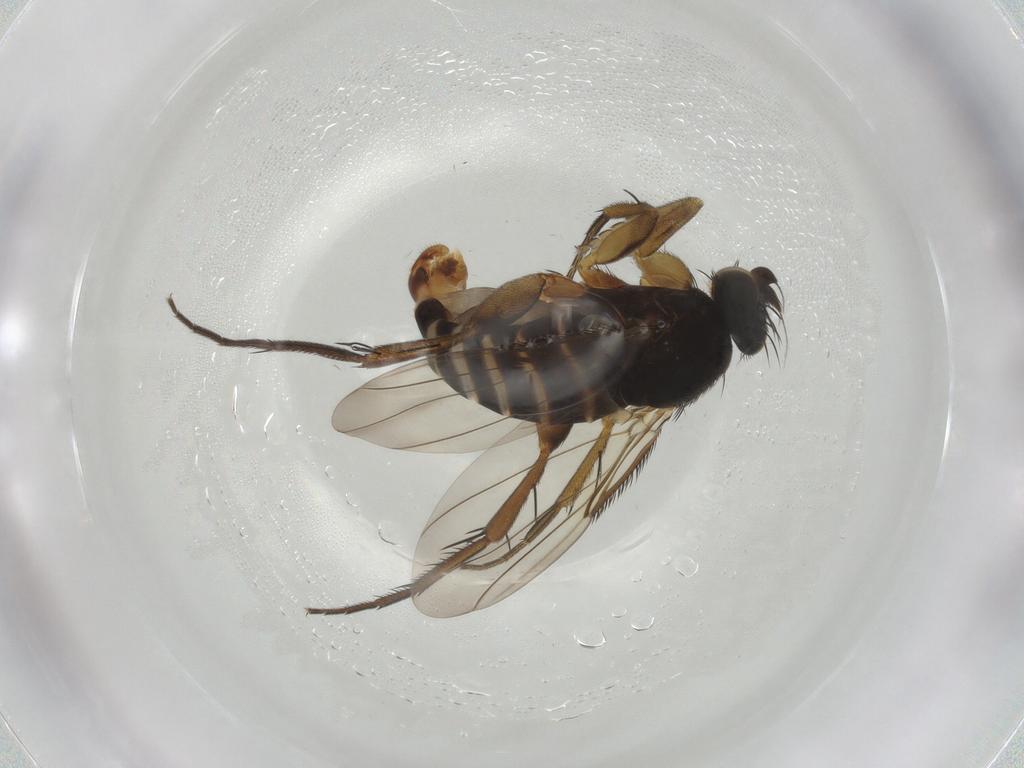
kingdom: Animalia
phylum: Arthropoda
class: Insecta
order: Diptera
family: Phoridae
